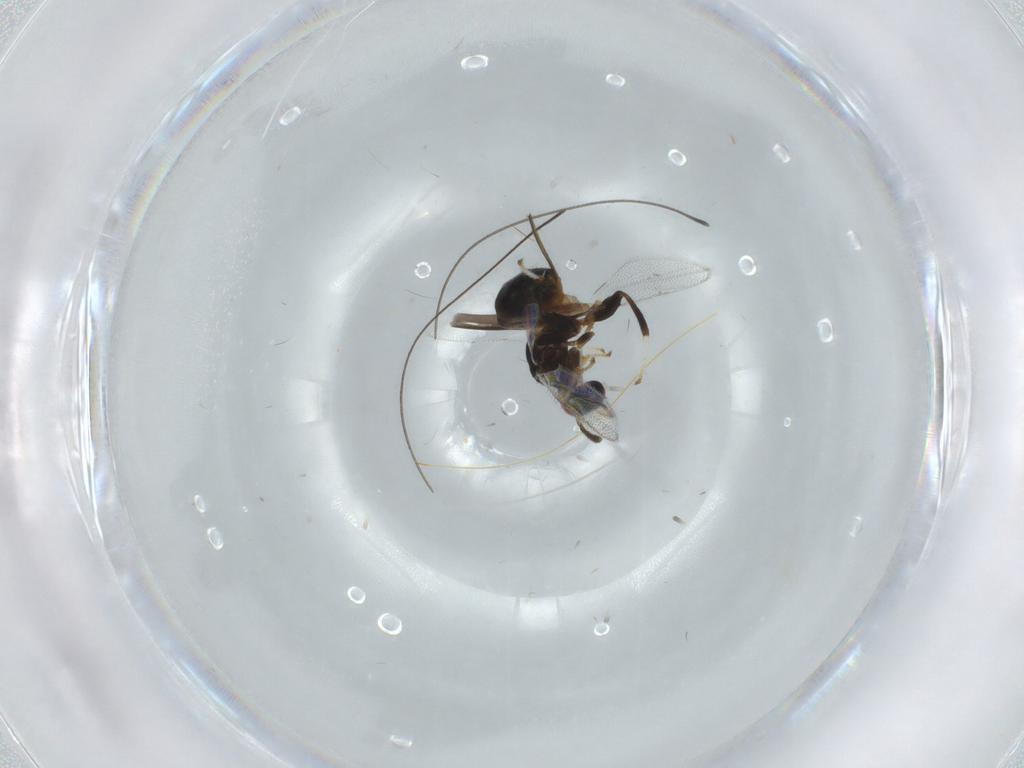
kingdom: Animalia
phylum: Arthropoda
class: Insecta
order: Hymenoptera
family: Torymidae
